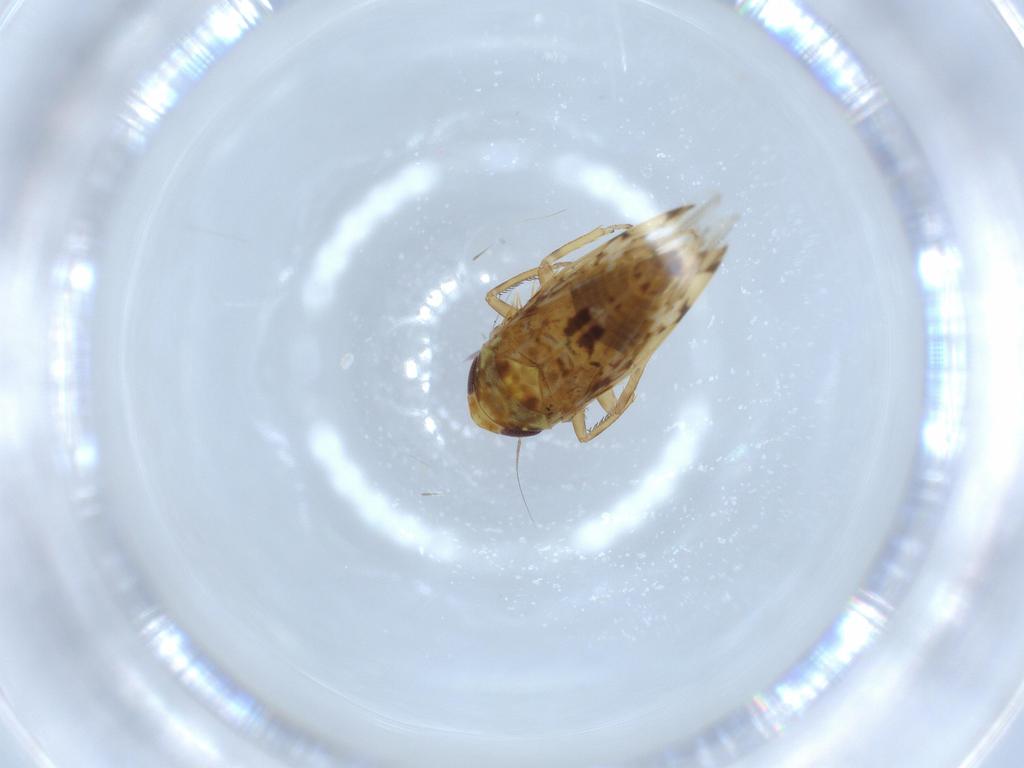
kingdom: Animalia
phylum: Arthropoda
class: Insecta
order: Hemiptera
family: Cicadellidae
